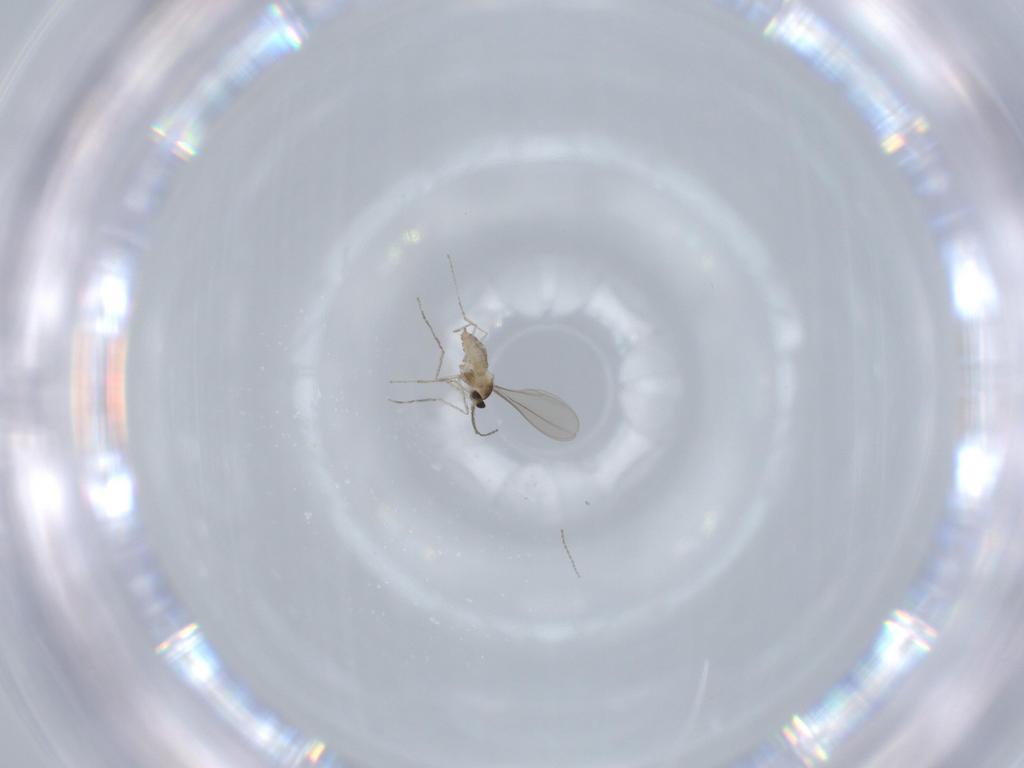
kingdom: Animalia
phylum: Arthropoda
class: Insecta
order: Diptera
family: Cecidomyiidae
